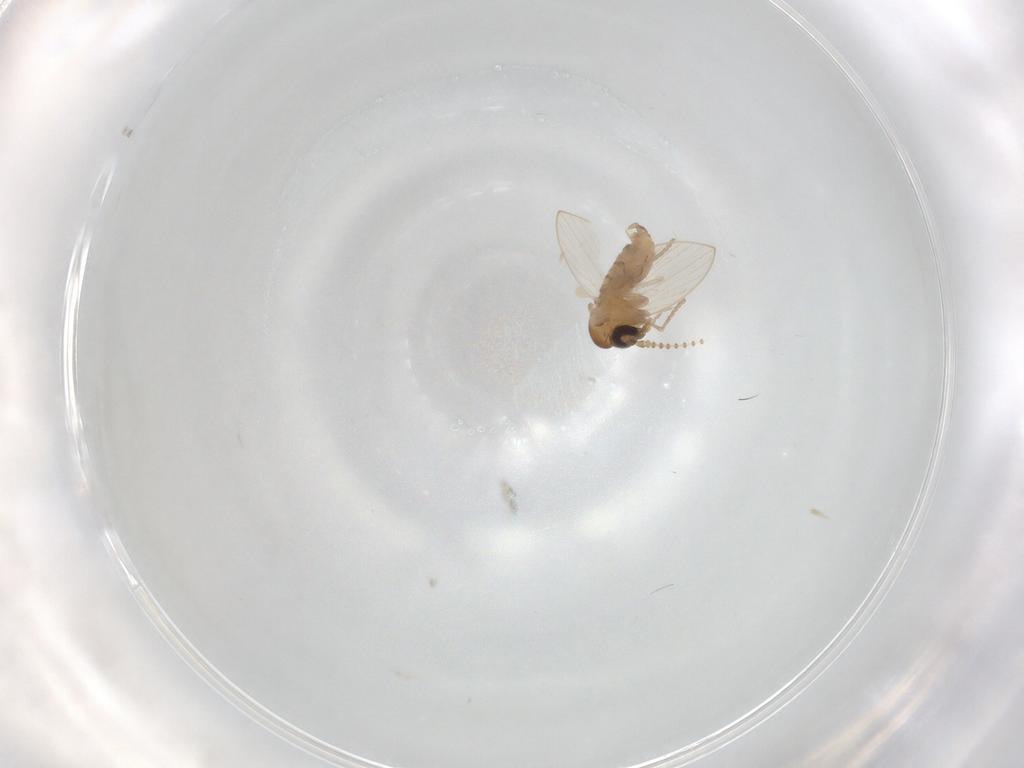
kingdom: Animalia
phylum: Arthropoda
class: Insecta
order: Diptera
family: Psychodidae
